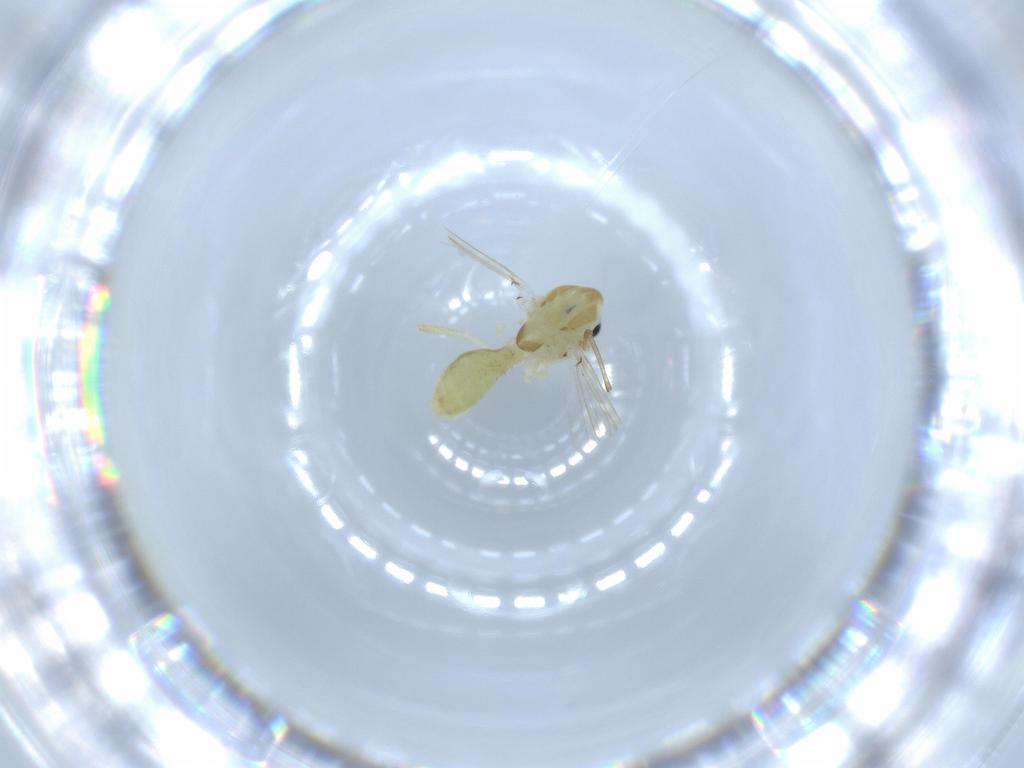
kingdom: Animalia
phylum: Arthropoda
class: Insecta
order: Diptera
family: Chironomidae
